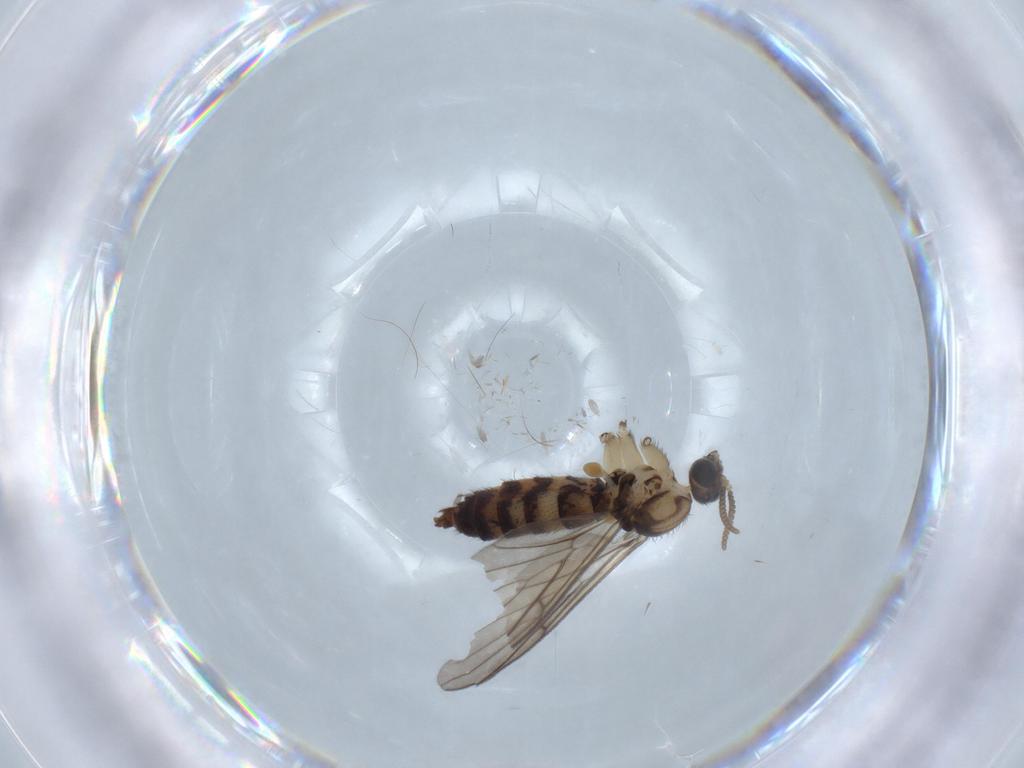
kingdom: Animalia
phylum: Arthropoda
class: Insecta
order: Diptera
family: Keroplatidae
